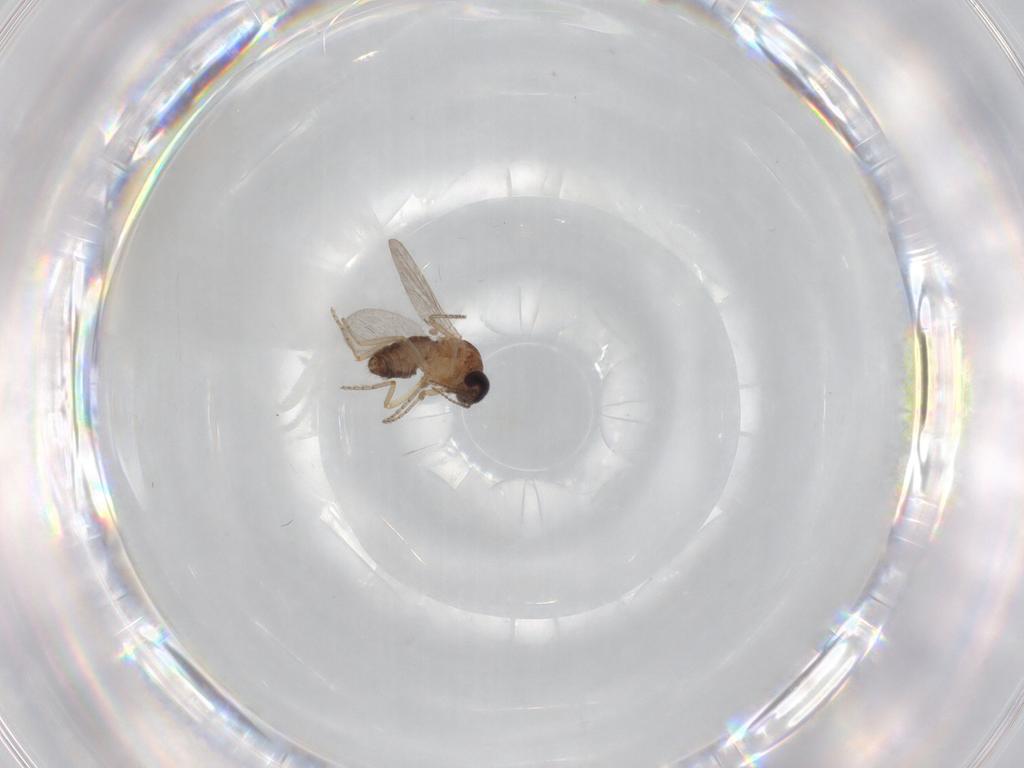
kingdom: Animalia
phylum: Arthropoda
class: Insecta
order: Diptera
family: Ceratopogonidae
